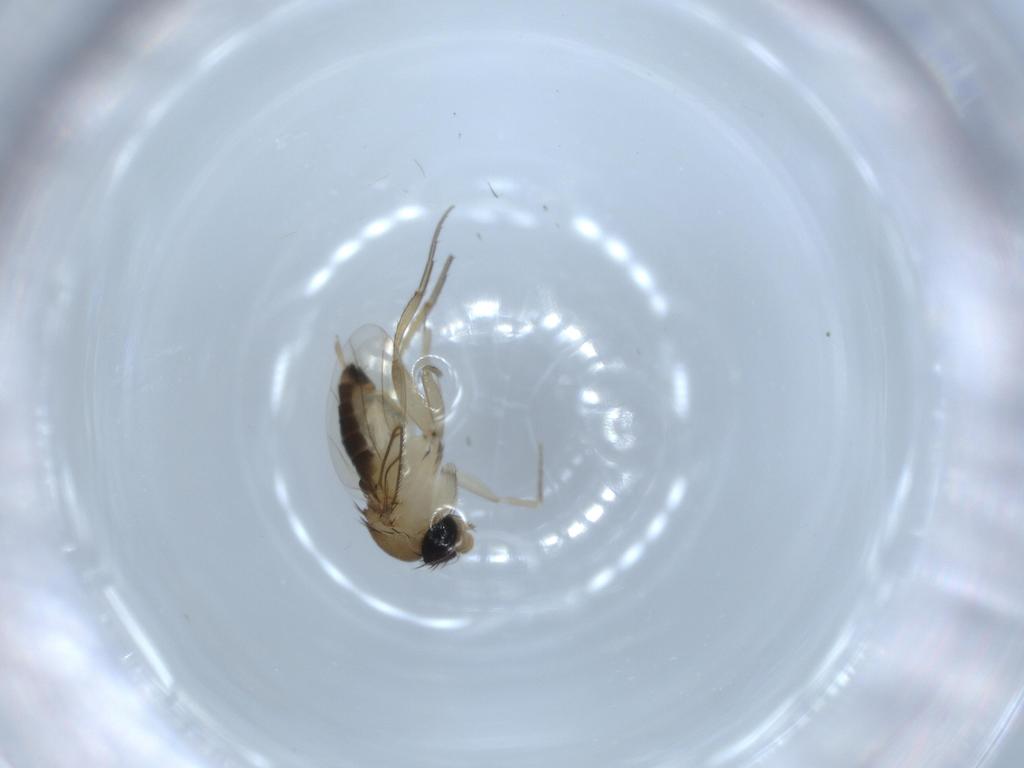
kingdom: Animalia
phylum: Arthropoda
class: Insecta
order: Diptera
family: Phoridae
